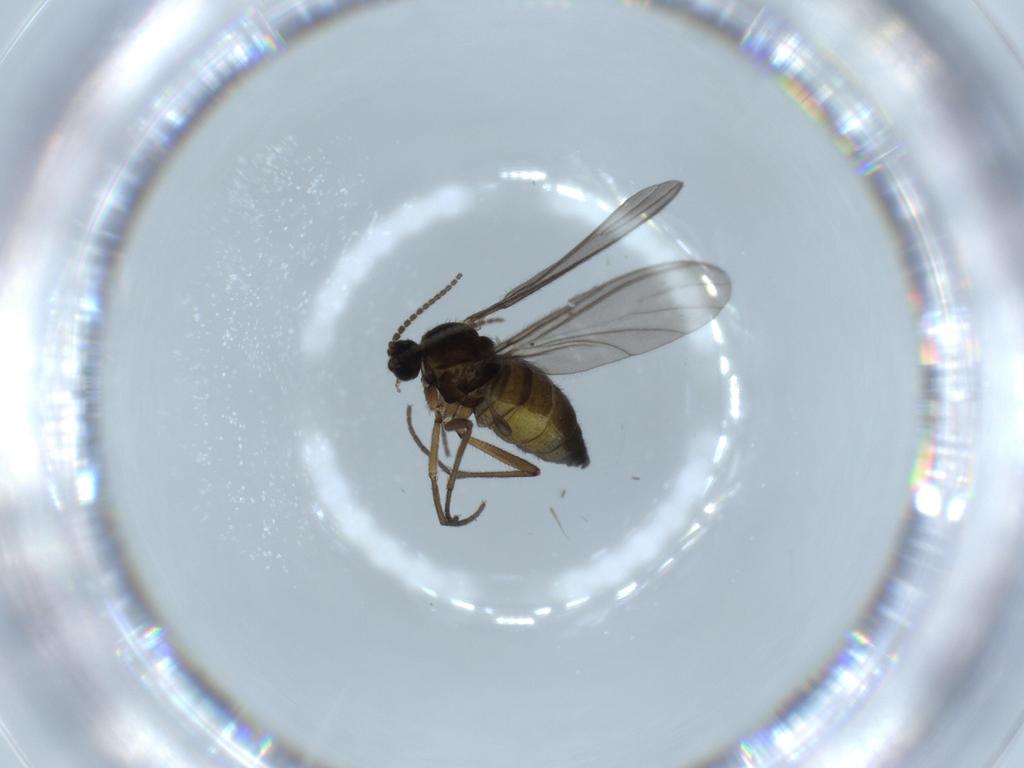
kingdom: Animalia
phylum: Arthropoda
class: Insecta
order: Diptera
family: Sciaridae
